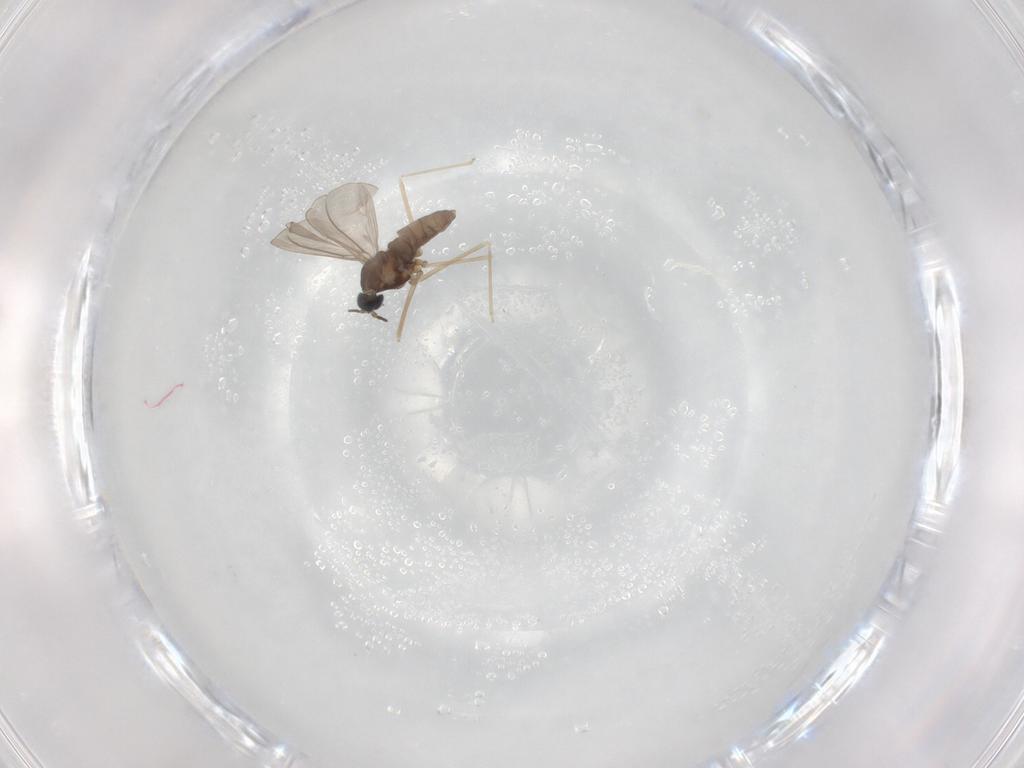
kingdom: Animalia
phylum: Arthropoda
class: Insecta
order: Diptera
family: Cecidomyiidae
